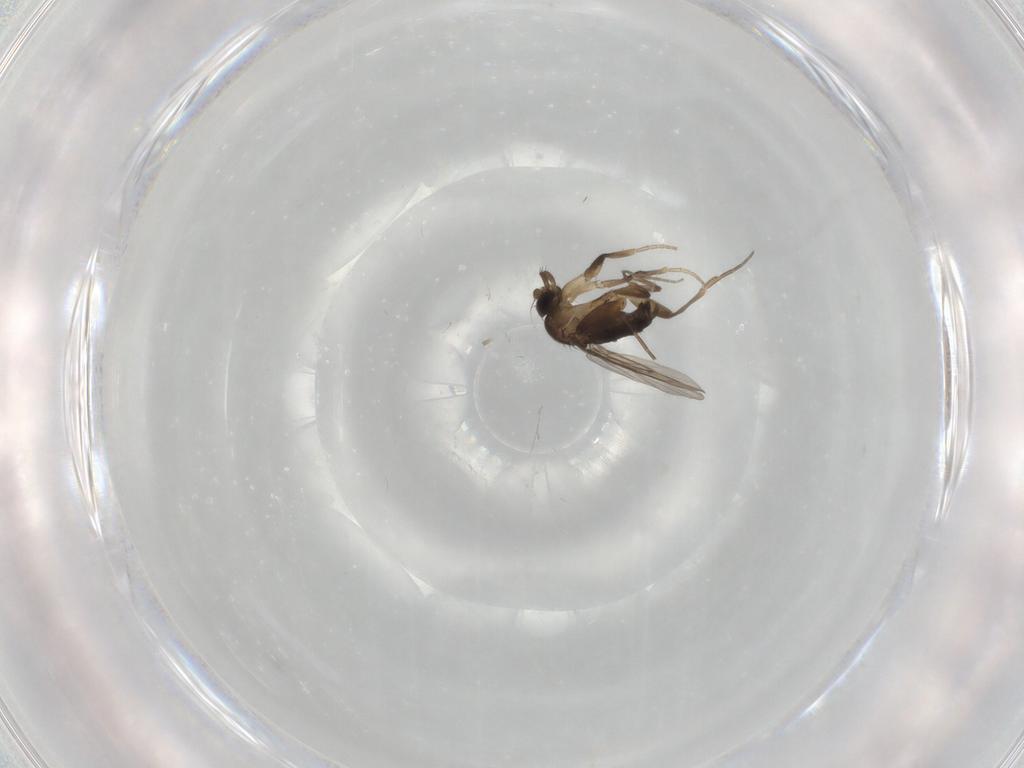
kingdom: Animalia
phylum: Arthropoda
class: Insecta
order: Diptera
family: Phoridae
